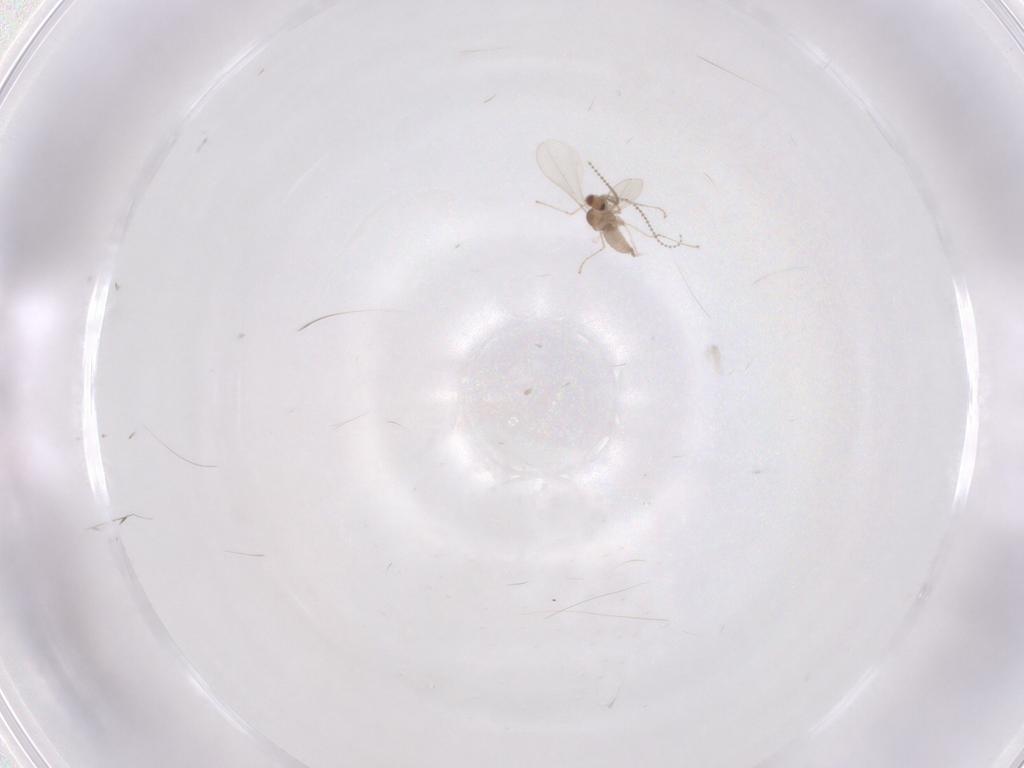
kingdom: Animalia
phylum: Arthropoda
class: Insecta
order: Diptera
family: Cecidomyiidae
